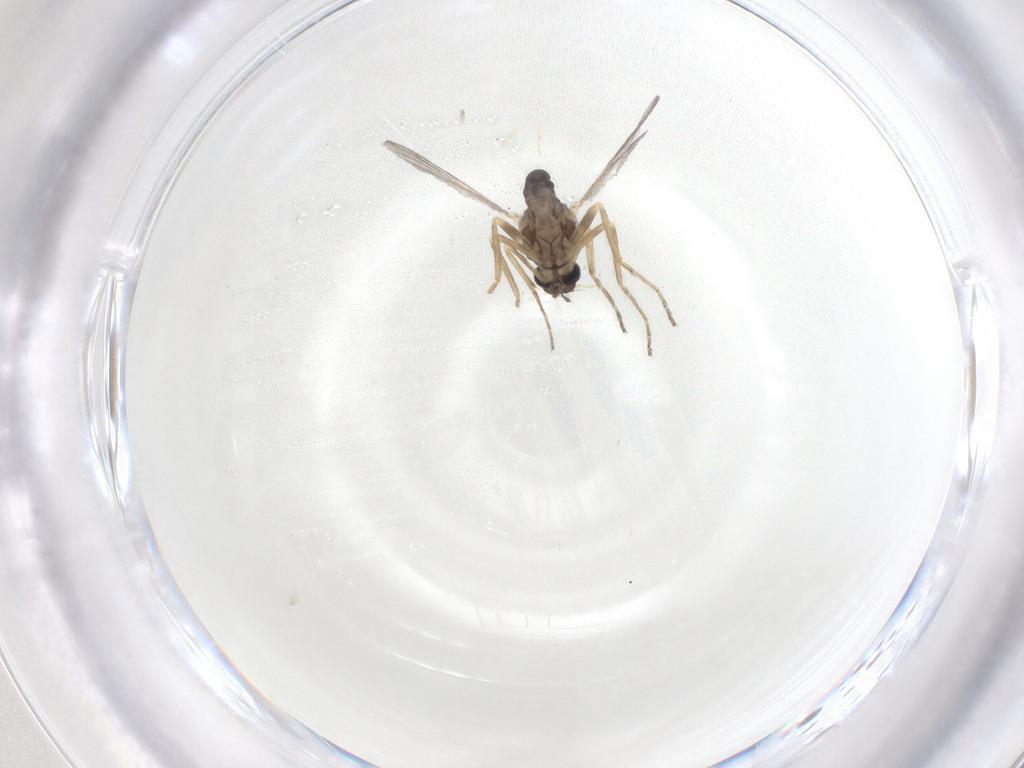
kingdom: Animalia
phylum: Arthropoda
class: Insecta
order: Diptera
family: Ceratopogonidae
